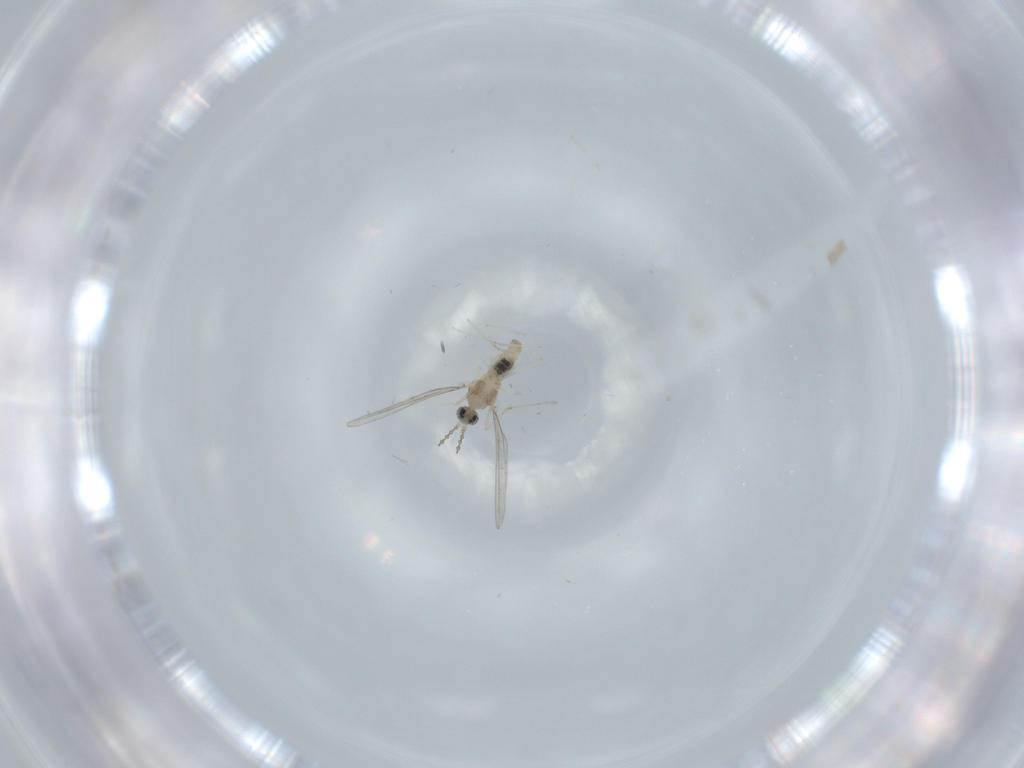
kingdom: Animalia
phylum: Arthropoda
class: Insecta
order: Diptera
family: Cecidomyiidae
